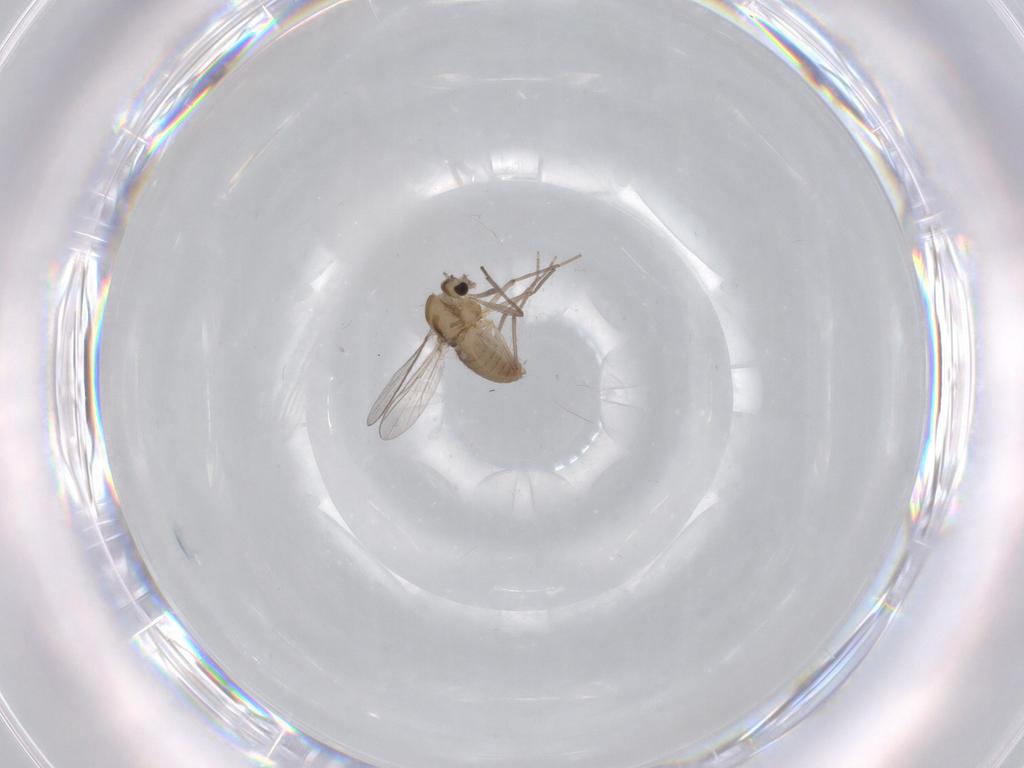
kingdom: Animalia
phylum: Arthropoda
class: Insecta
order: Diptera
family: Chironomidae
